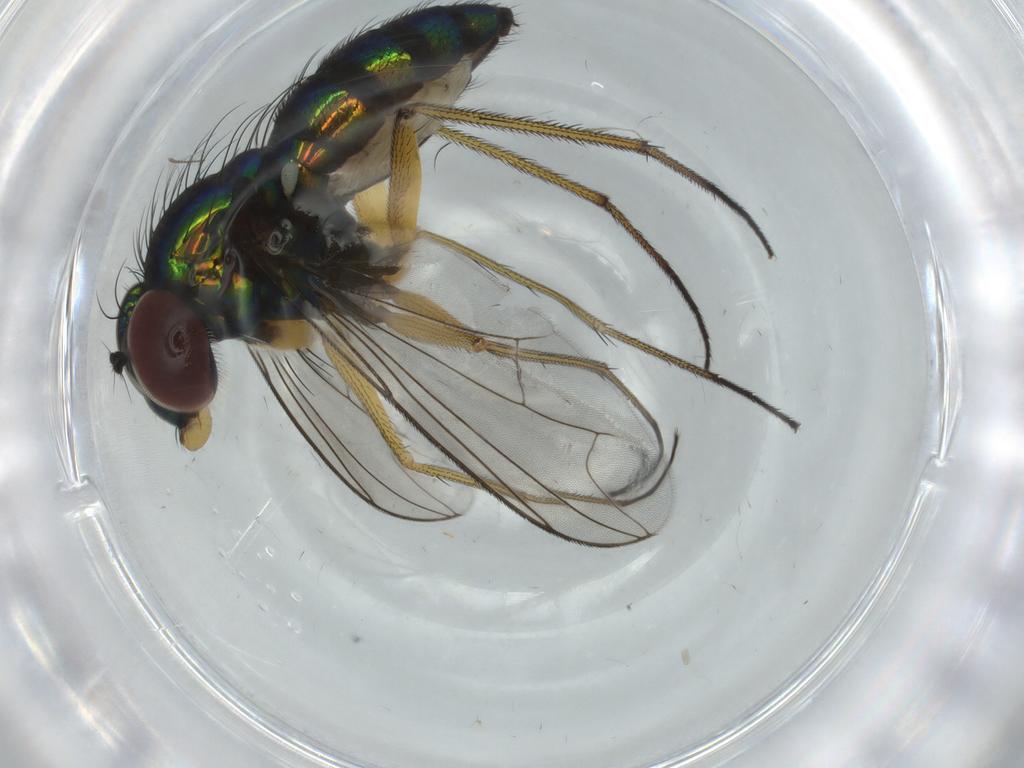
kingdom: Animalia
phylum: Arthropoda
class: Insecta
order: Diptera
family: Dolichopodidae
